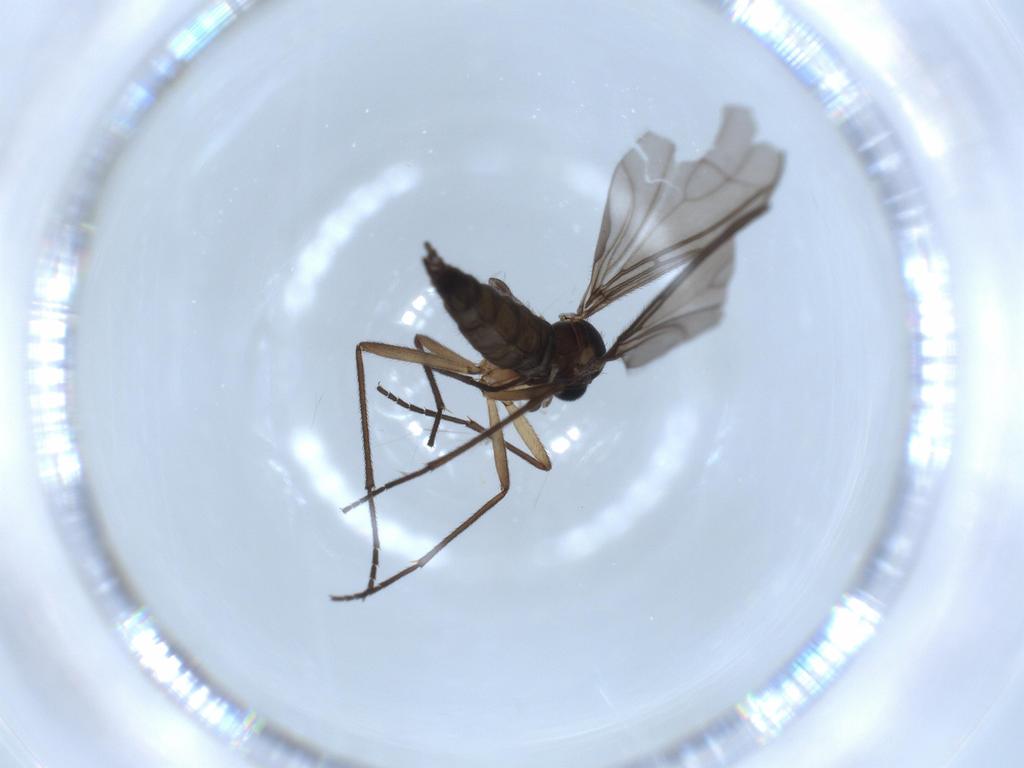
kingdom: Animalia
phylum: Arthropoda
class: Insecta
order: Diptera
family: Sciaridae
